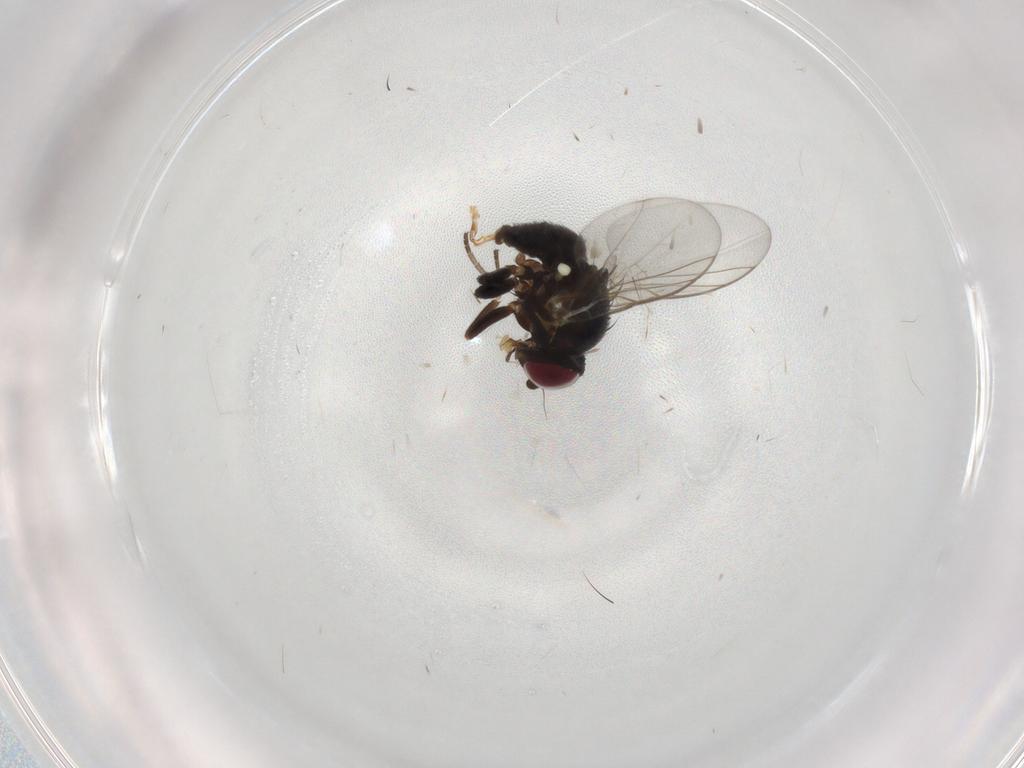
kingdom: Animalia
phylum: Arthropoda
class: Insecta
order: Diptera
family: Agromyzidae
